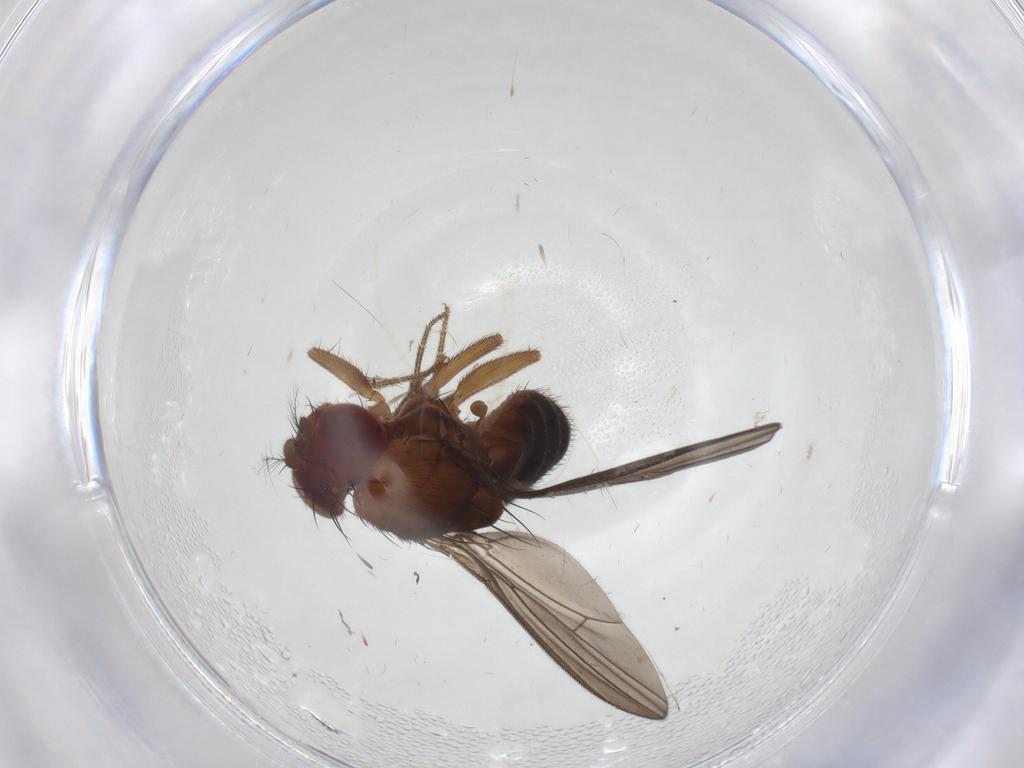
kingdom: Animalia
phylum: Arthropoda
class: Insecta
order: Diptera
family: Drosophilidae
